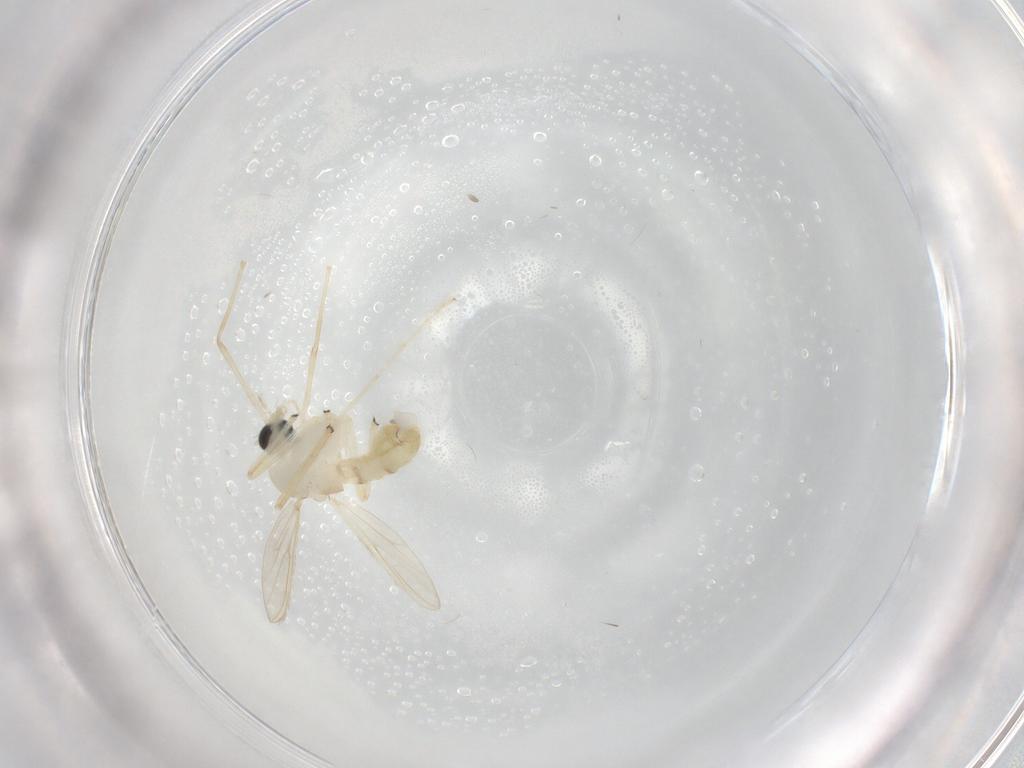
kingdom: Animalia
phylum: Arthropoda
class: Insecta
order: Diptera
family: Chironomidae
